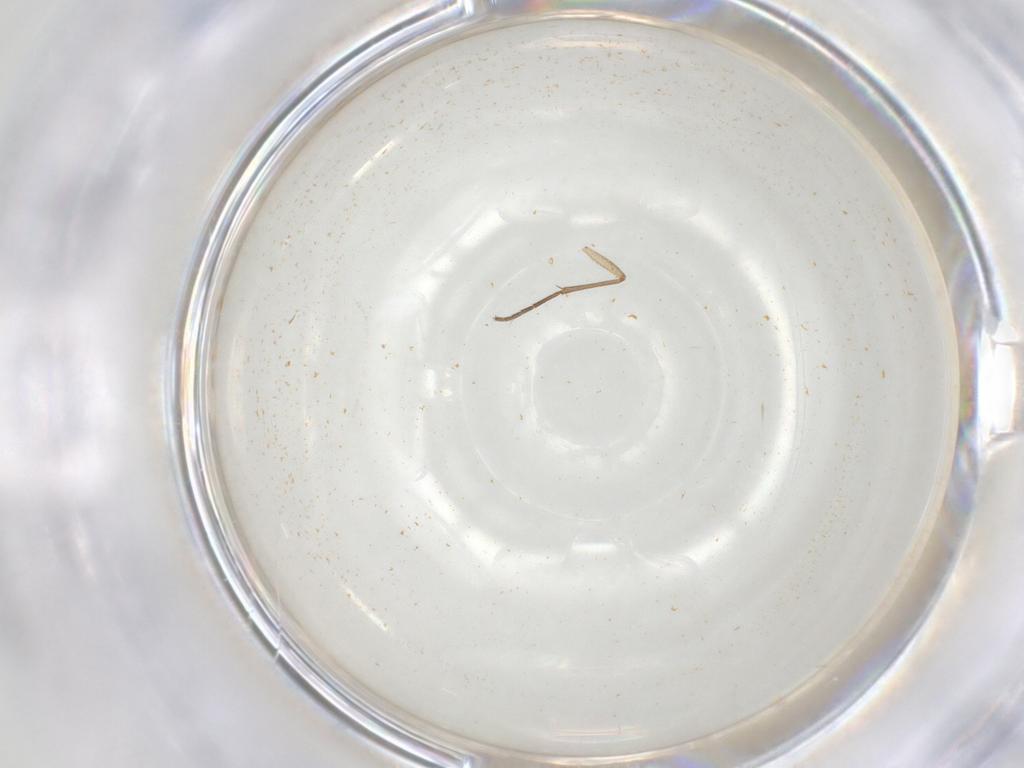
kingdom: Animalia
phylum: Arthropoda
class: Insecta
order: Diptera
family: Sciaridae
